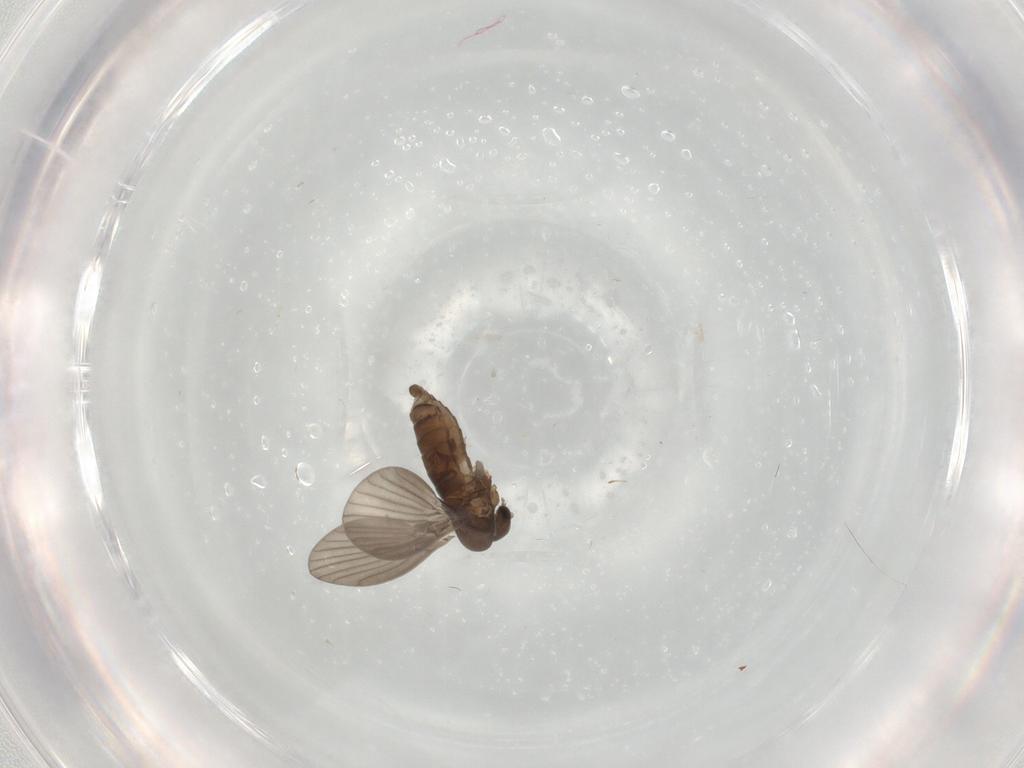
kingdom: Animalia
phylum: Arthropoda
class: Insecta
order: Diptera
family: Psychodidae
